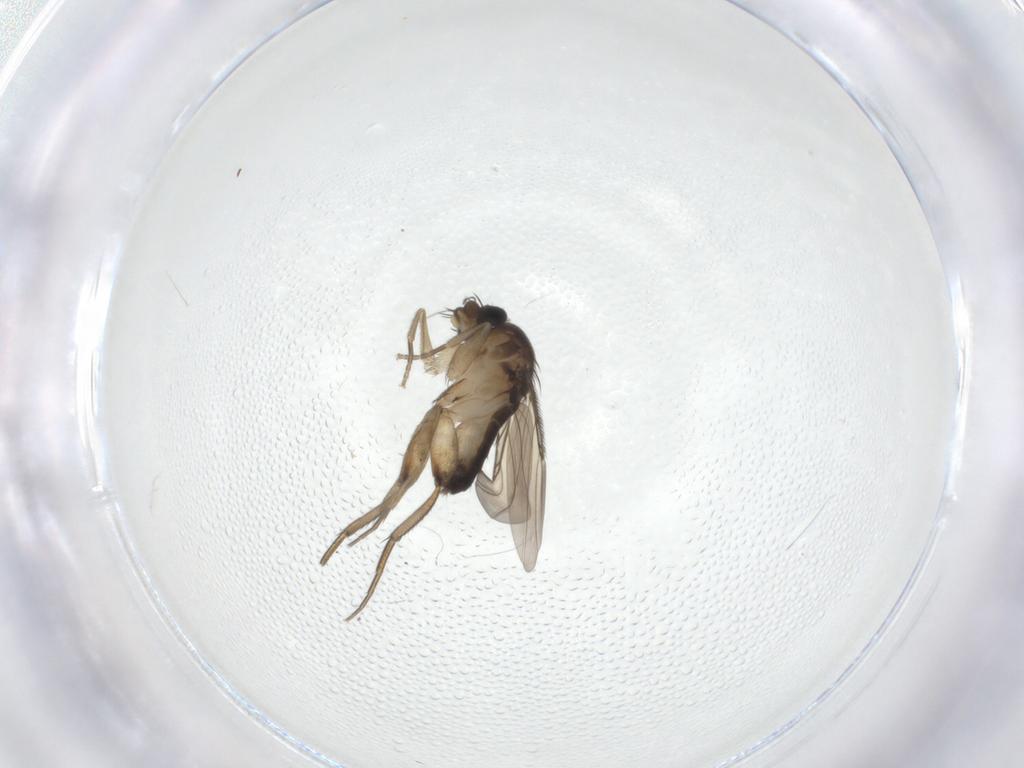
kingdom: Animalia
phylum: Arthropoda
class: Insecta
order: Diptera
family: Phoridae
